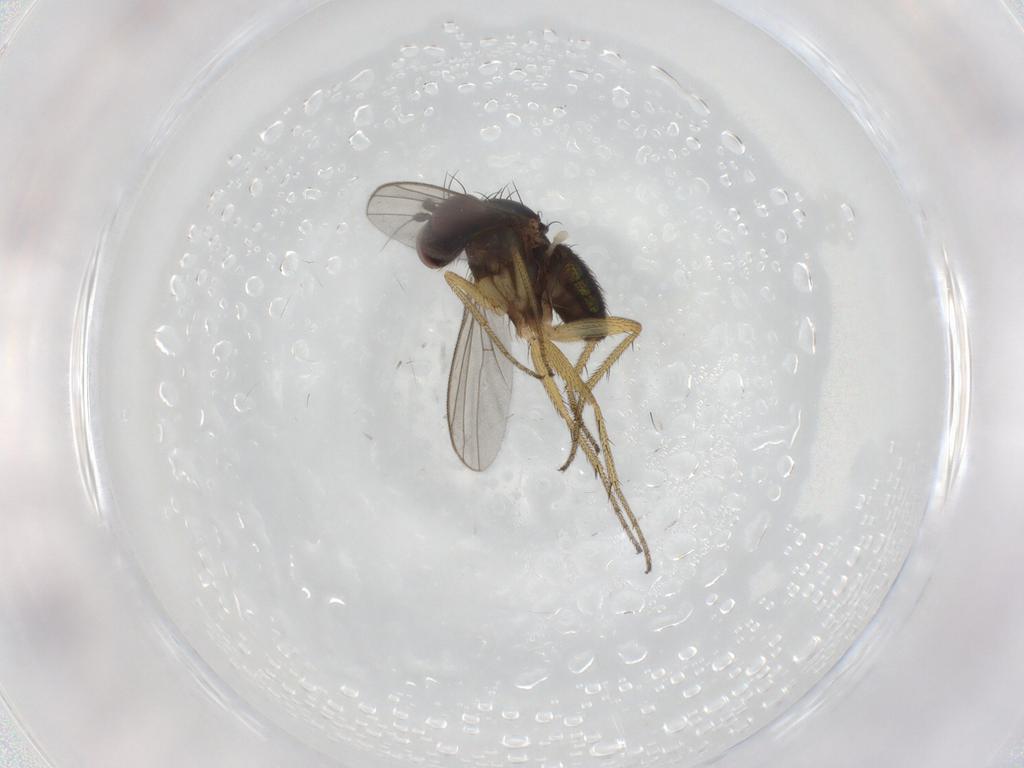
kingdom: Animalia
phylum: Arthropoda
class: Insecta
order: Diptera
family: Dolichopodidae
